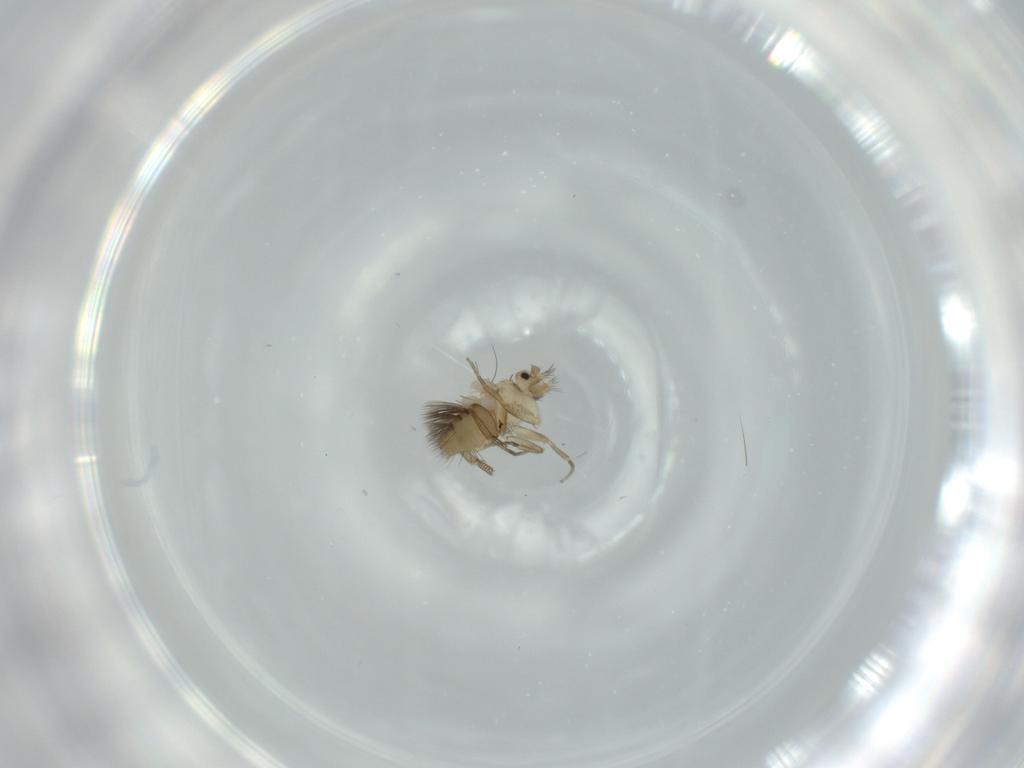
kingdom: Animalia
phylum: Arthropoda
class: Insecta
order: Diptera
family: Phoridae
